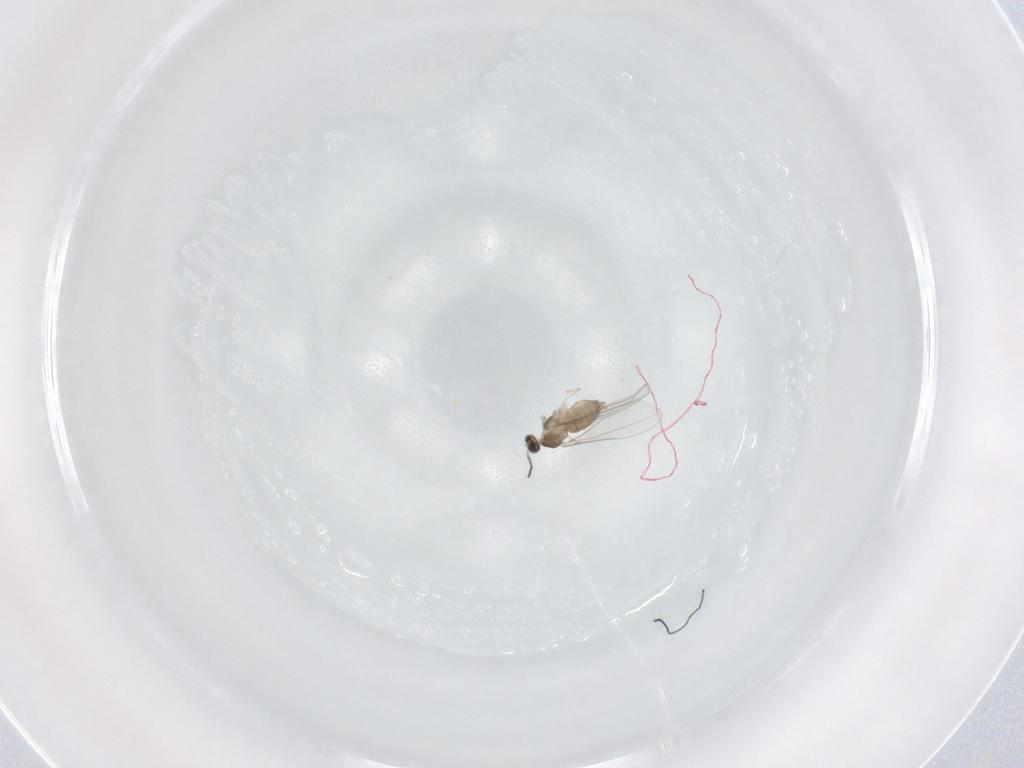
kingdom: Animalia
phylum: Arthropoda
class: Insecta
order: Diptera
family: Cecidomyiidae
